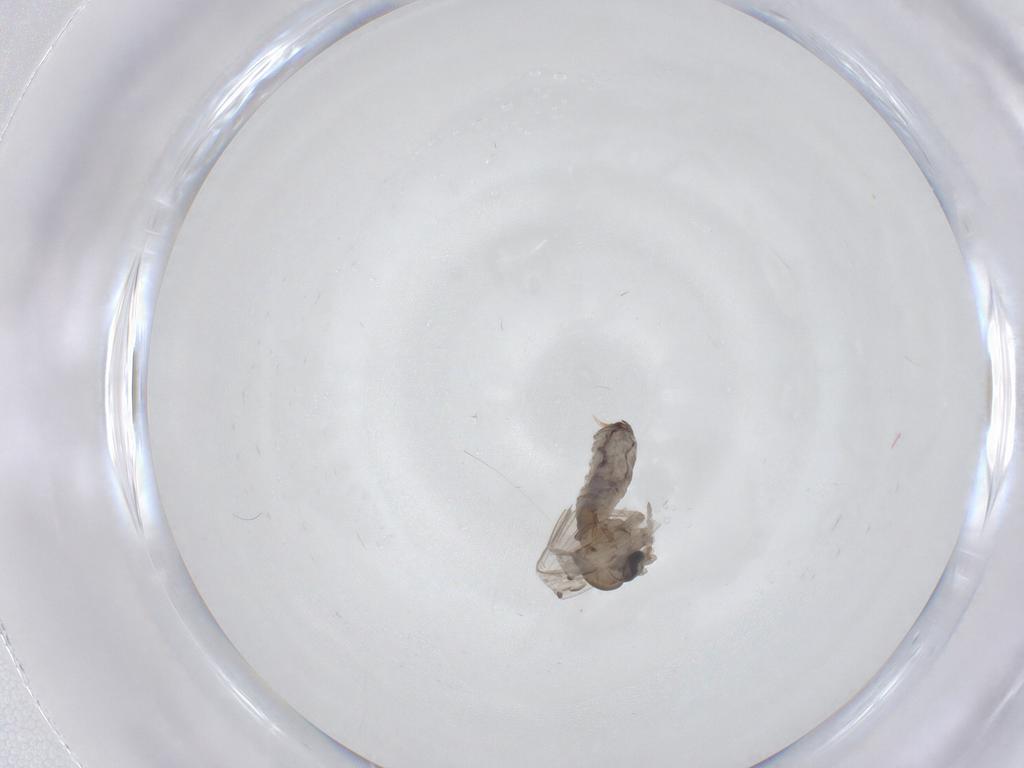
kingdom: Animalia
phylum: Arthropoda
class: Insecta
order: Diptera
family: Psychodidae
